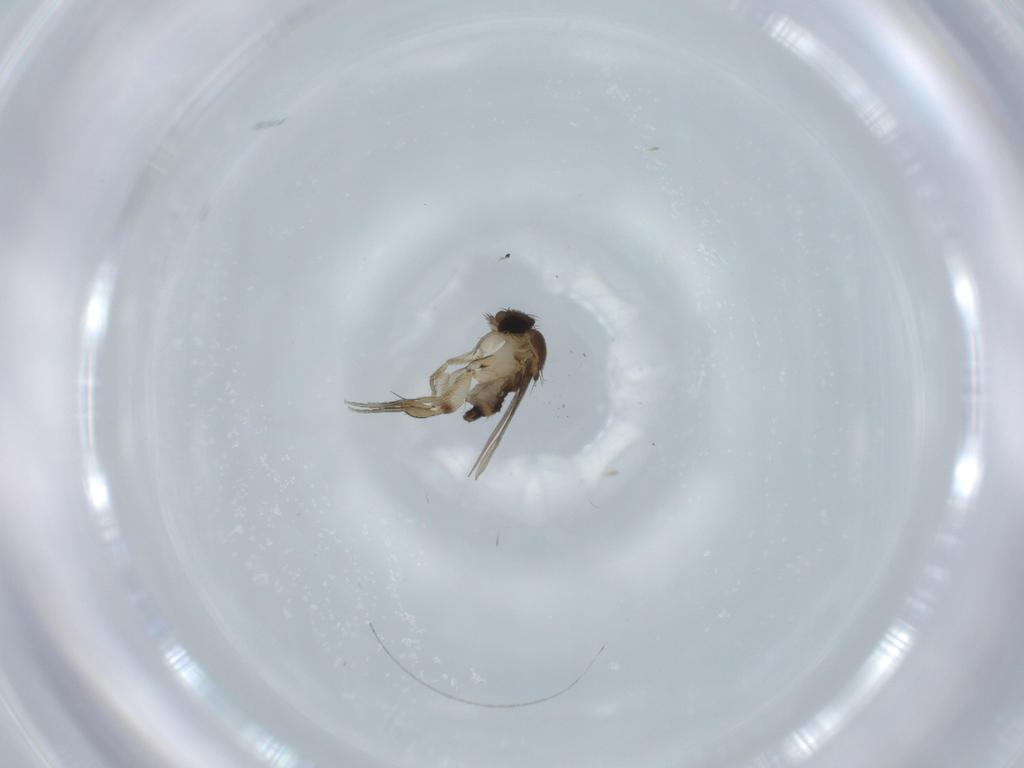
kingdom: Animalia
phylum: Arthropoda
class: Insecta
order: Diptera
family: Phoridae
